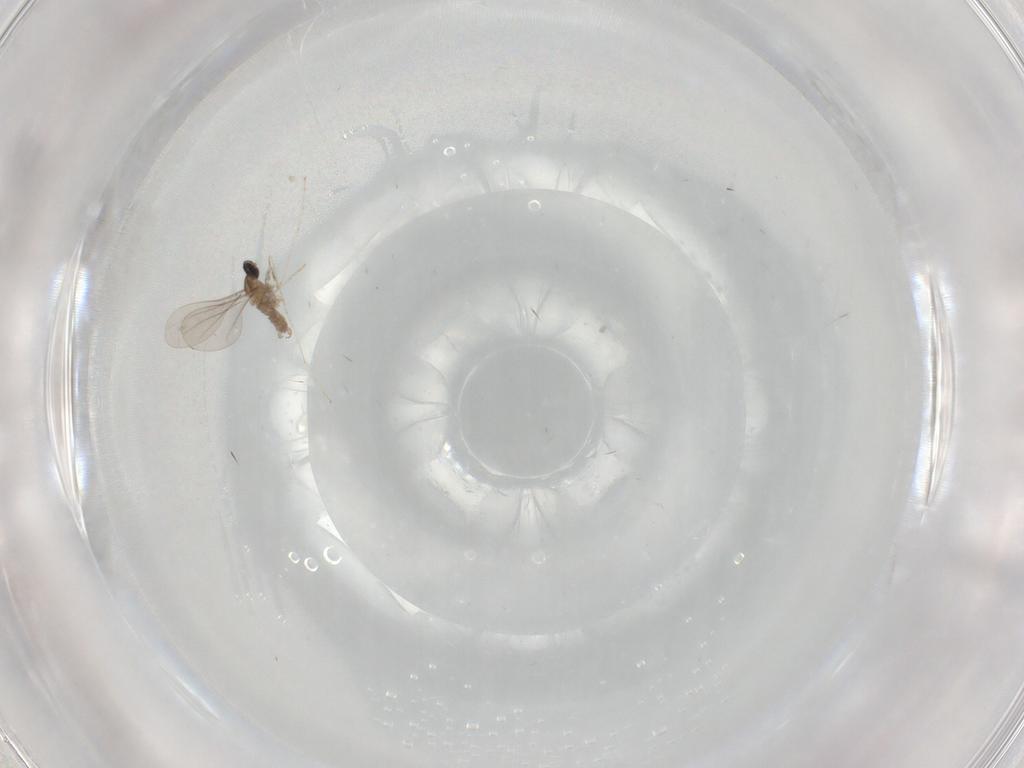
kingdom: Animalia
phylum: Arthropoda
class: Insecta
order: Diptera
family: Phoridae
